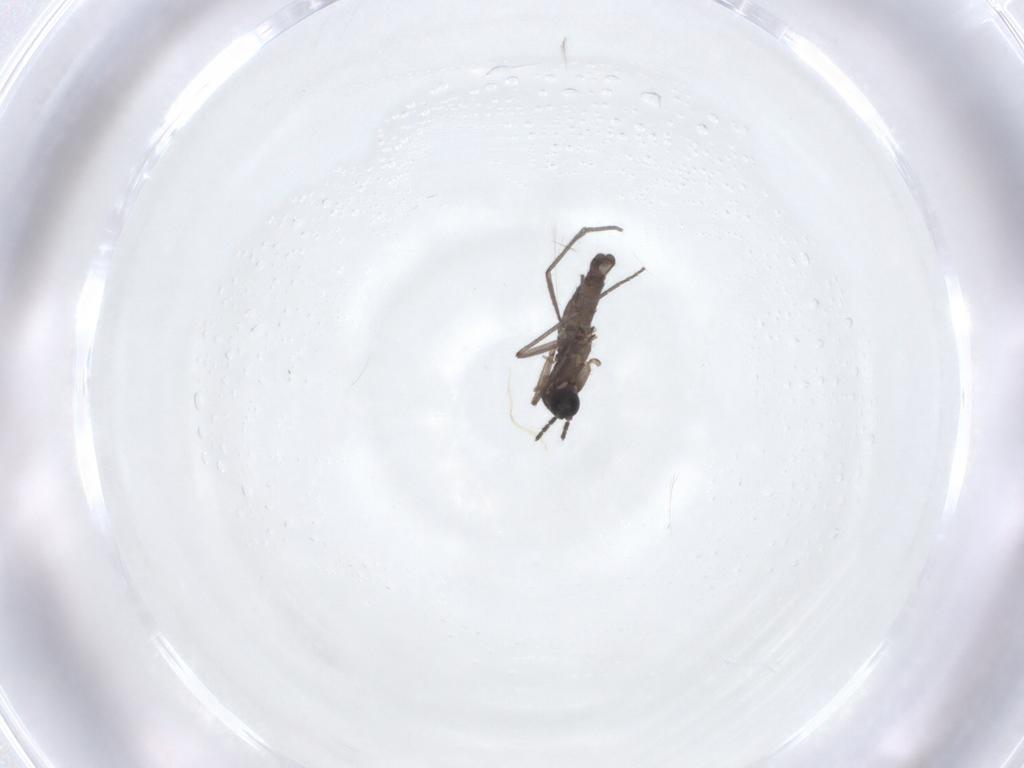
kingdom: Animalia
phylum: Arthropoda
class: Insecta
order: Diptera
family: Sciaridae
